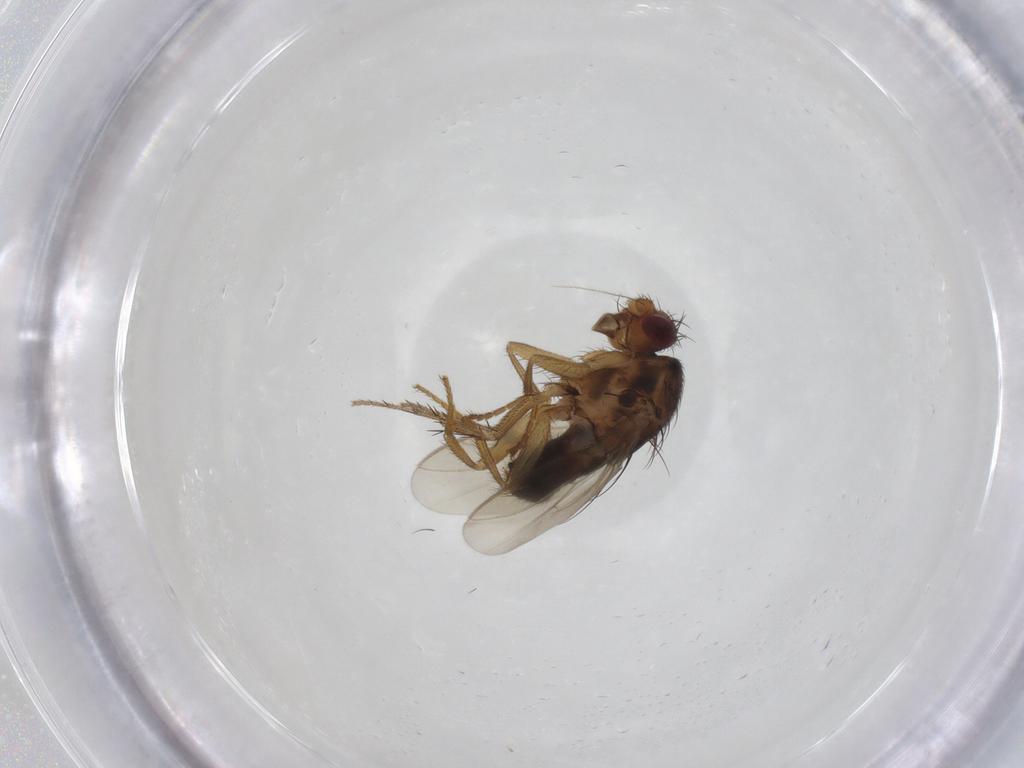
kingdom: Animalia
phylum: Arthropoda
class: Insecta
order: Diptera
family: Sphaeroceridae
